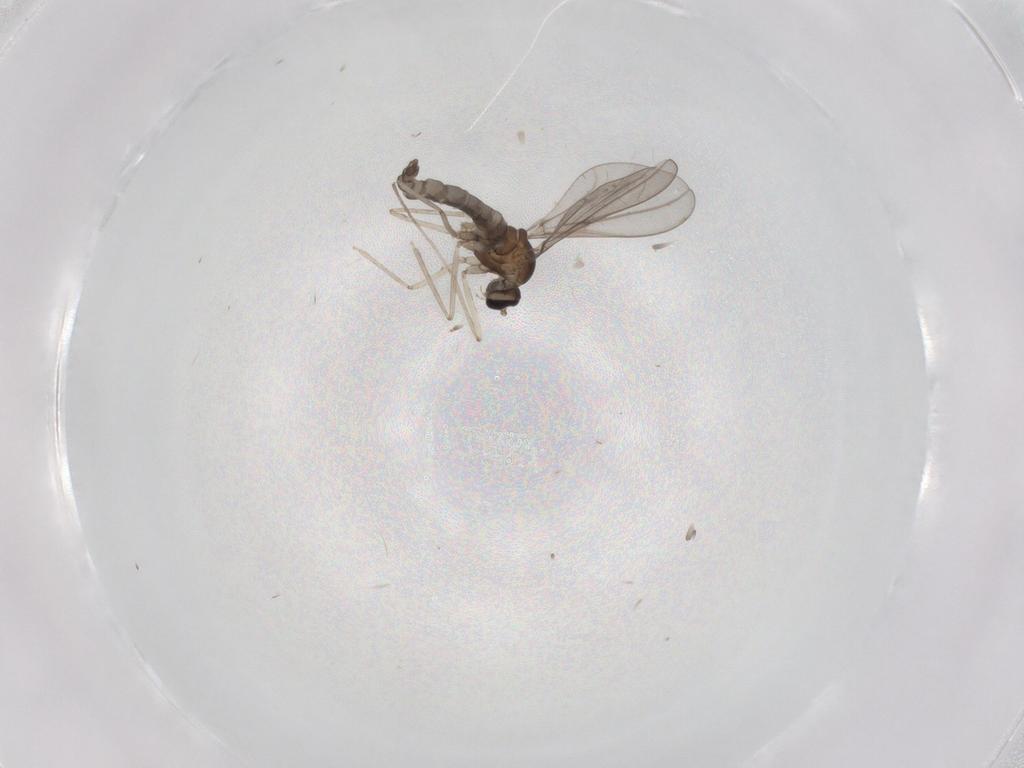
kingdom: Animalia
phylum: Arthropoda
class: Insecta
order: Diptera
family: Cecidomyiidae
